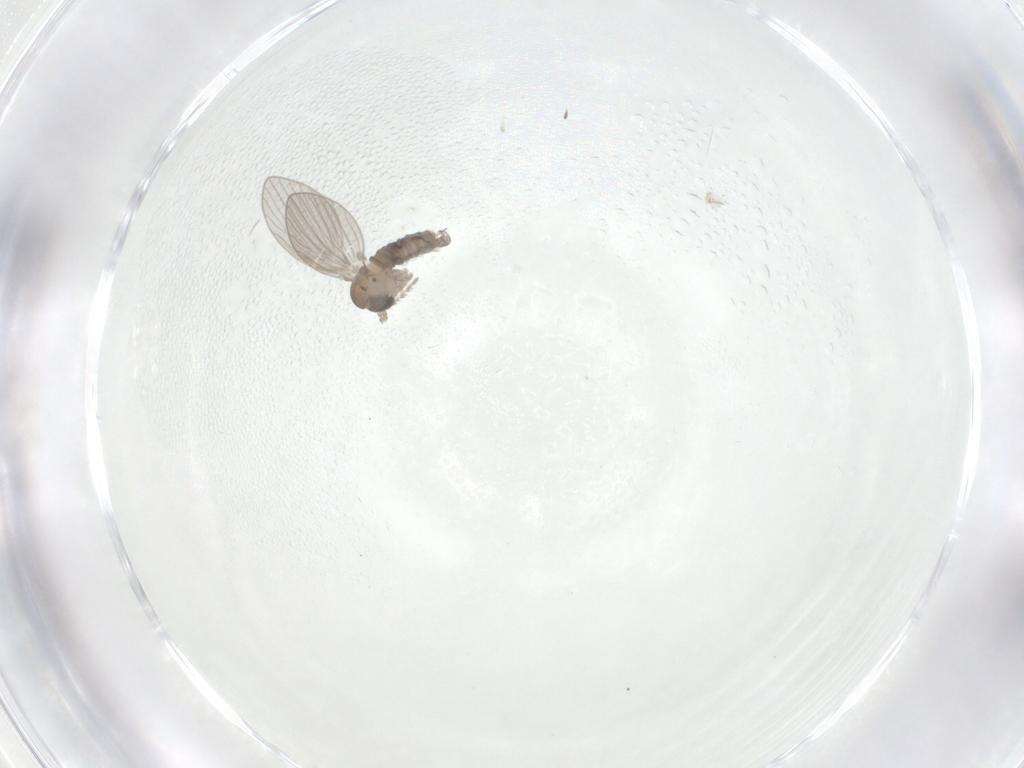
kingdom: Animalia
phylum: Arthropoda
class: Insecta
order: Diptera
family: Psychodidae
